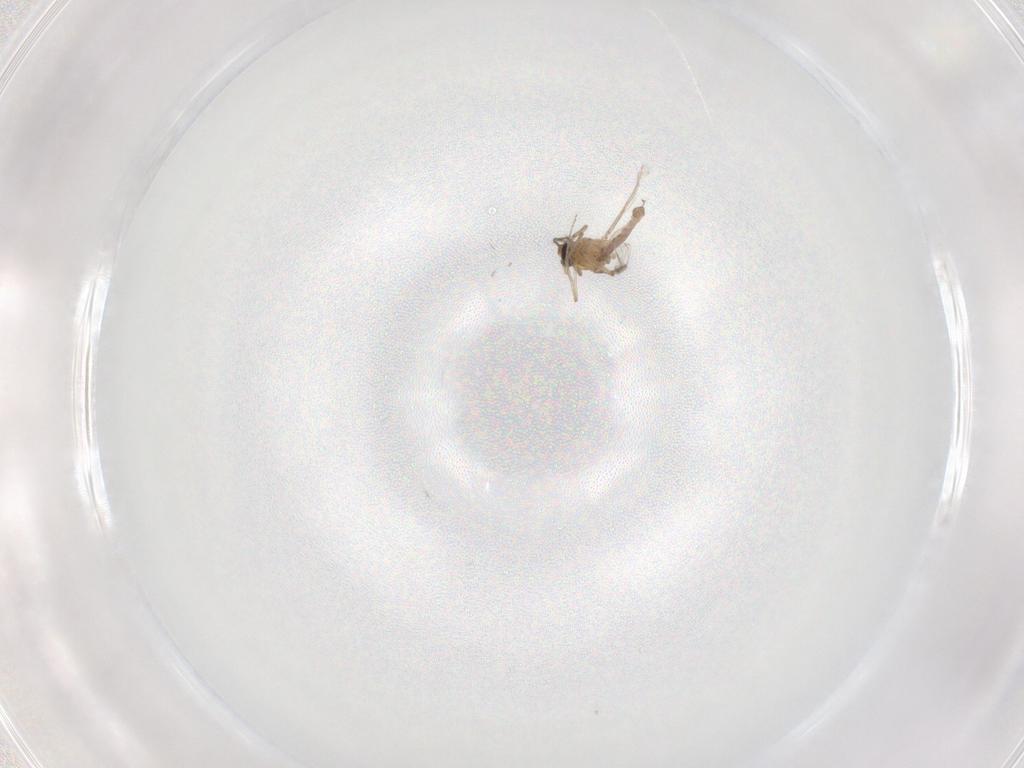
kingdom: Animalia
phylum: Arthropoda
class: Insecta
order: Diptera
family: Ceratopogonidae
